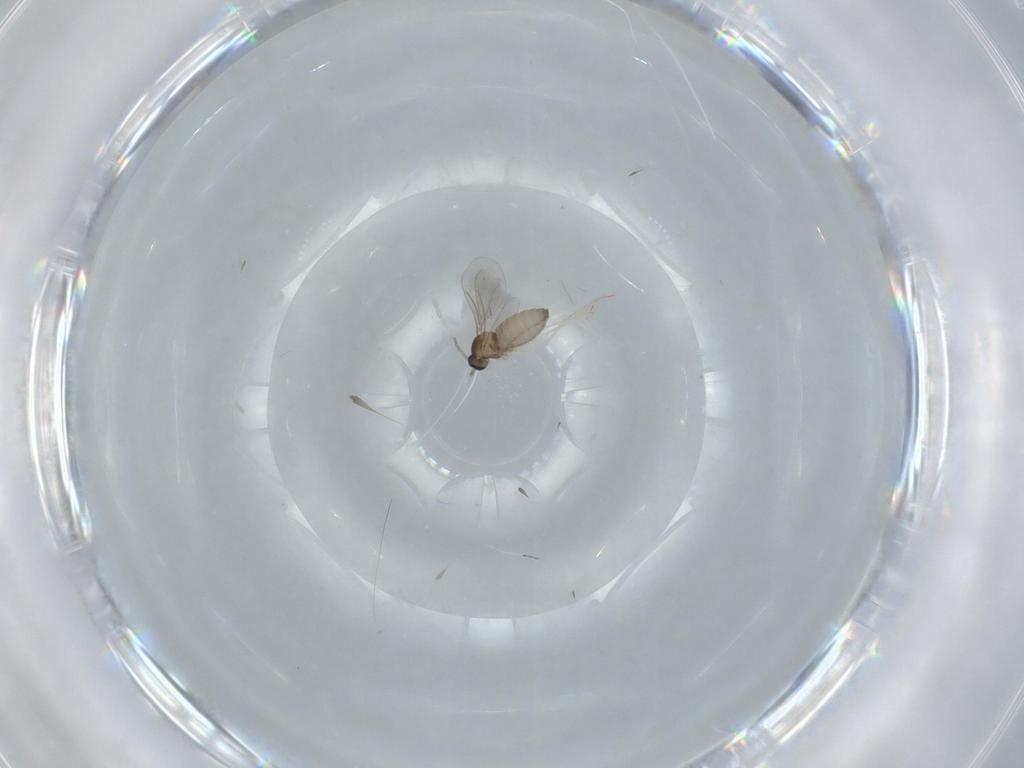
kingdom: Animalia
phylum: Arthropoda
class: Insecta
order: Diptera
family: Cecidomyiidae
